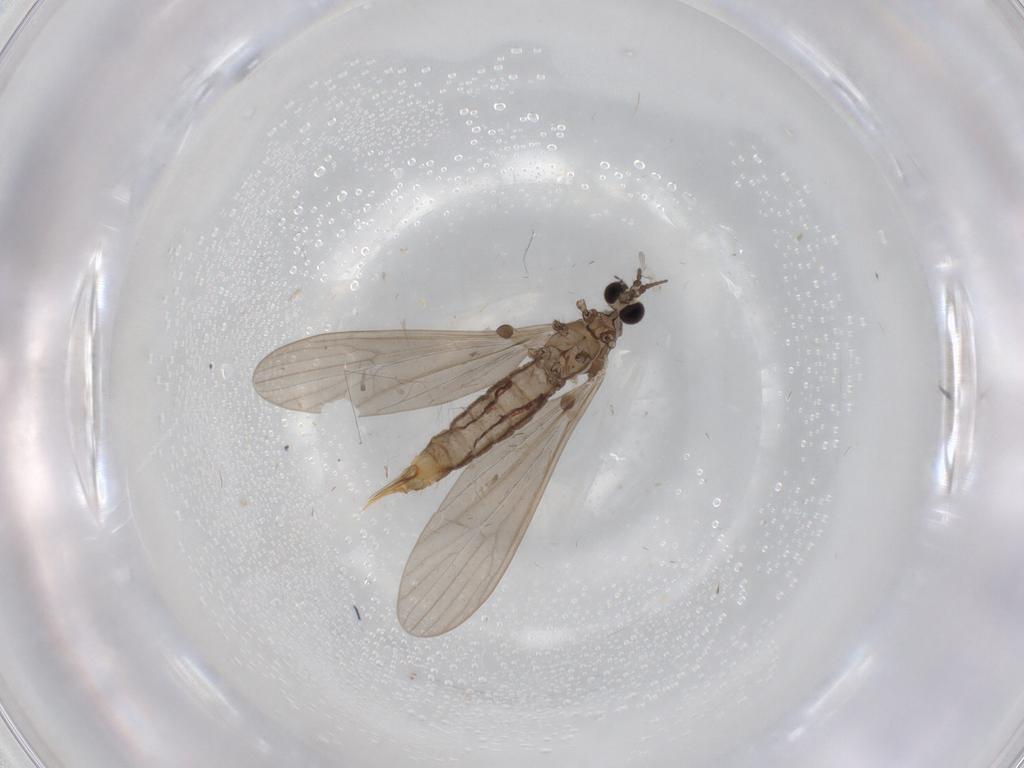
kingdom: Animalia
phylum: Arthropoda
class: Insecta
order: Diptera
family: Limoniidae
